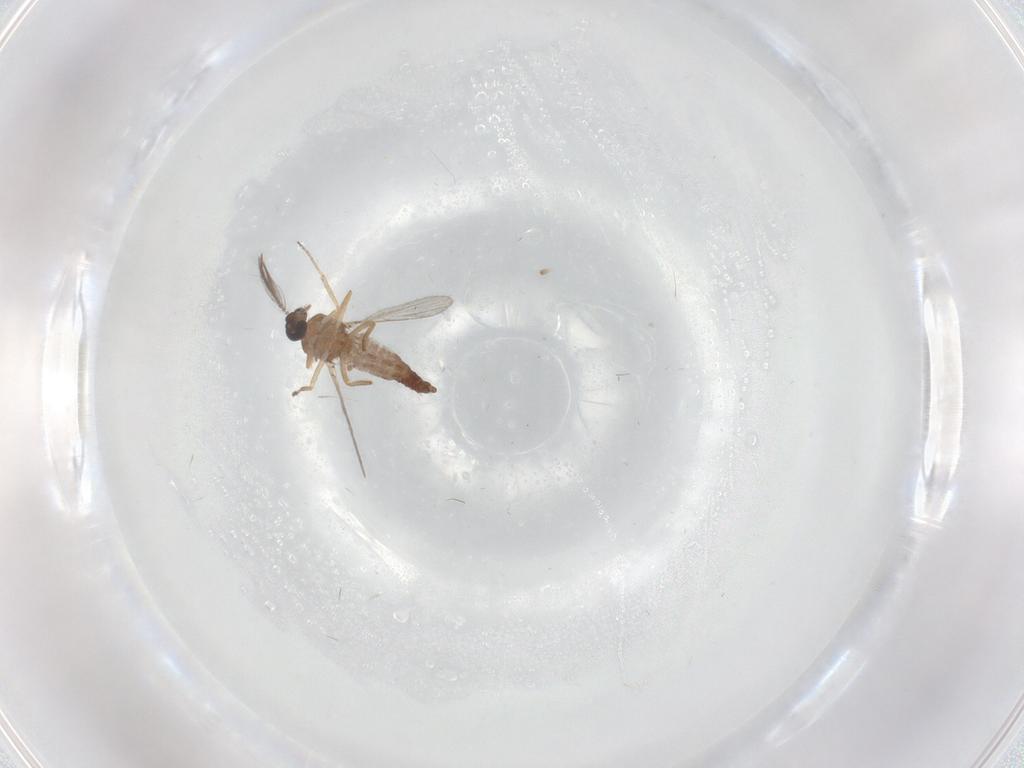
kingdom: Animalia
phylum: Arthropoda
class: Insecta
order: Diptera
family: Ceratopogonidae
